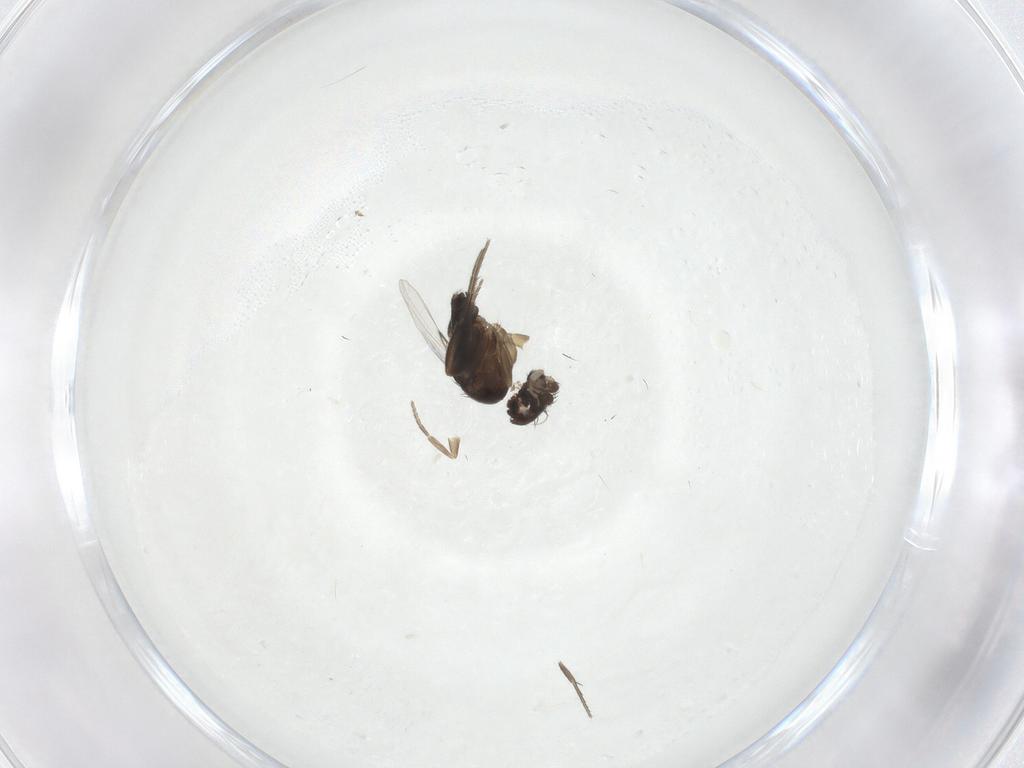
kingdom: Animalia
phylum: Arthropoda
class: Insecta
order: Diptera
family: Phoridae
